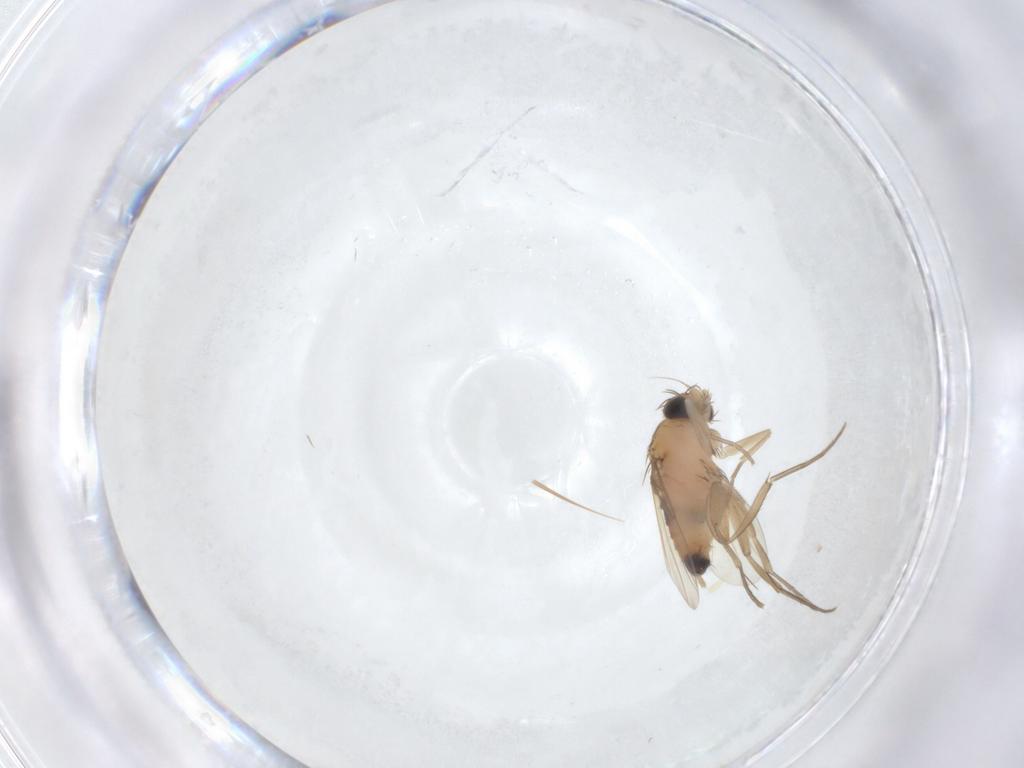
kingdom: Animalia
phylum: Arthropoda
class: Insecta
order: Diptera
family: Phoridae
